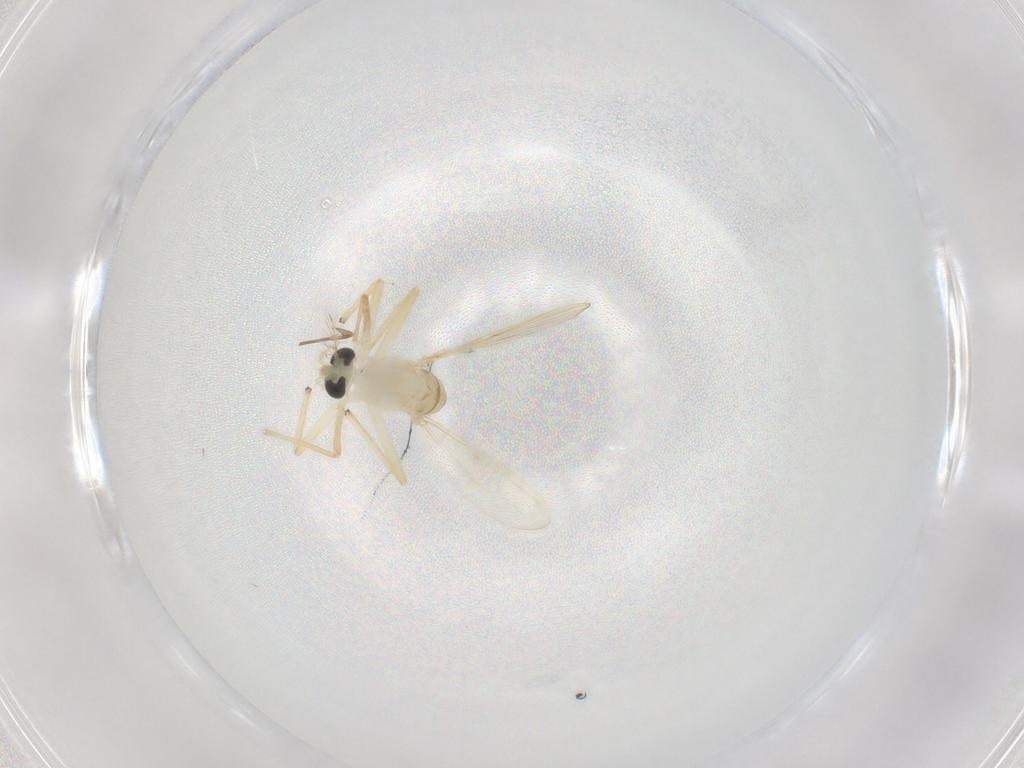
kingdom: Animalia
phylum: Arthropoda
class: Insecta
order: Diptera
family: Chironomidae
